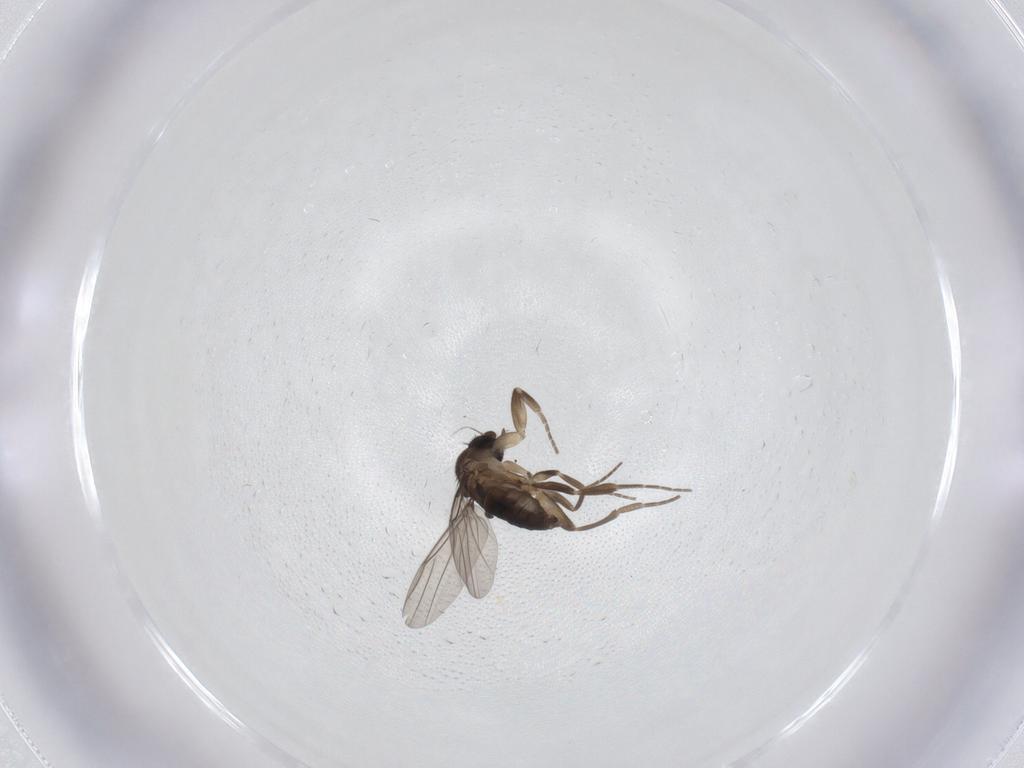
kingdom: Animalia
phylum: Arthropoda
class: Insecta
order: Diptera
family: Phoridae
